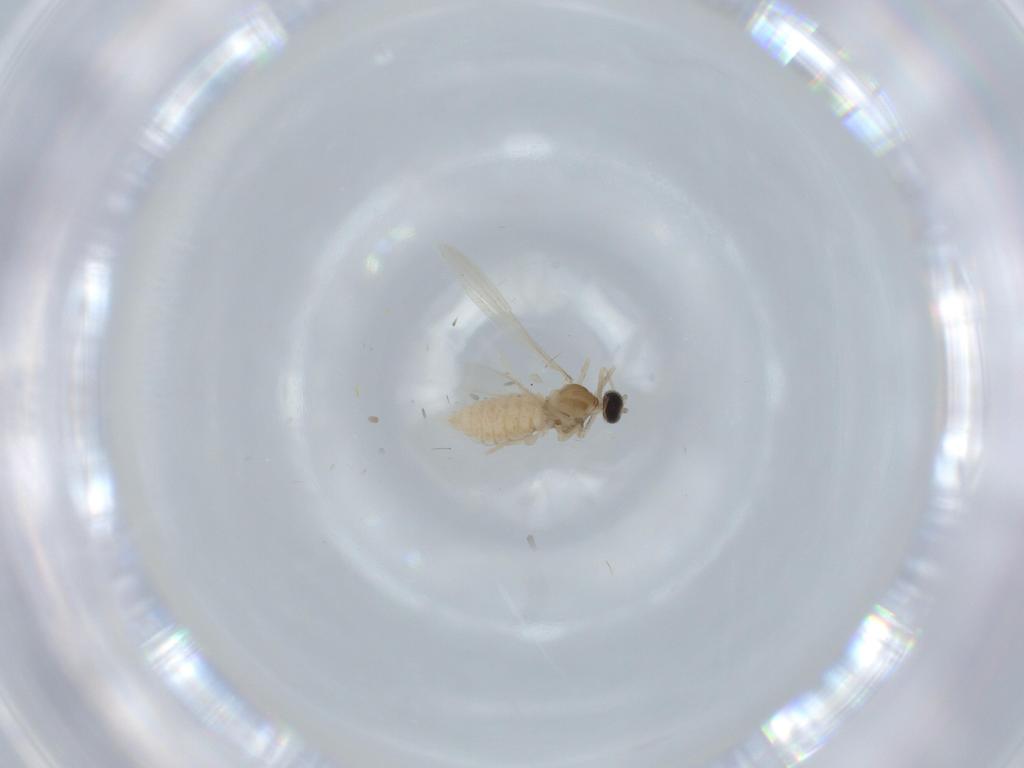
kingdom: Animalia
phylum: Arthropoda
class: Insecta
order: Diptera
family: Cecidomyiidae
